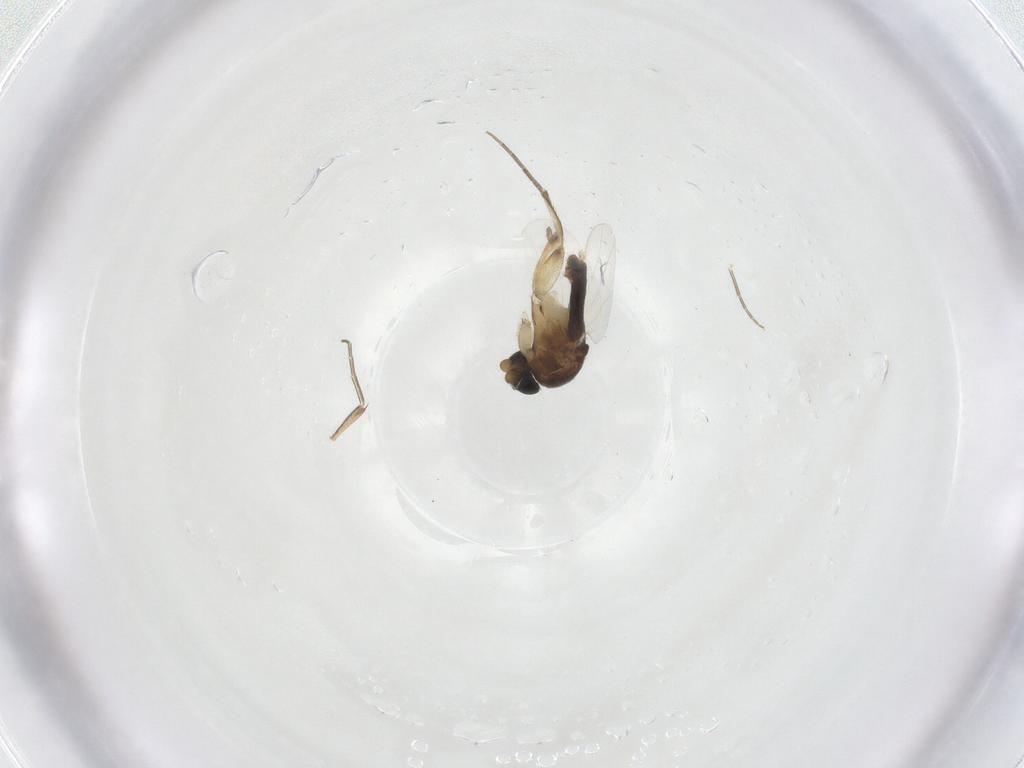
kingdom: Animalia
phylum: Arthropoda
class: Insecta
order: Diptera
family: Phoridae
